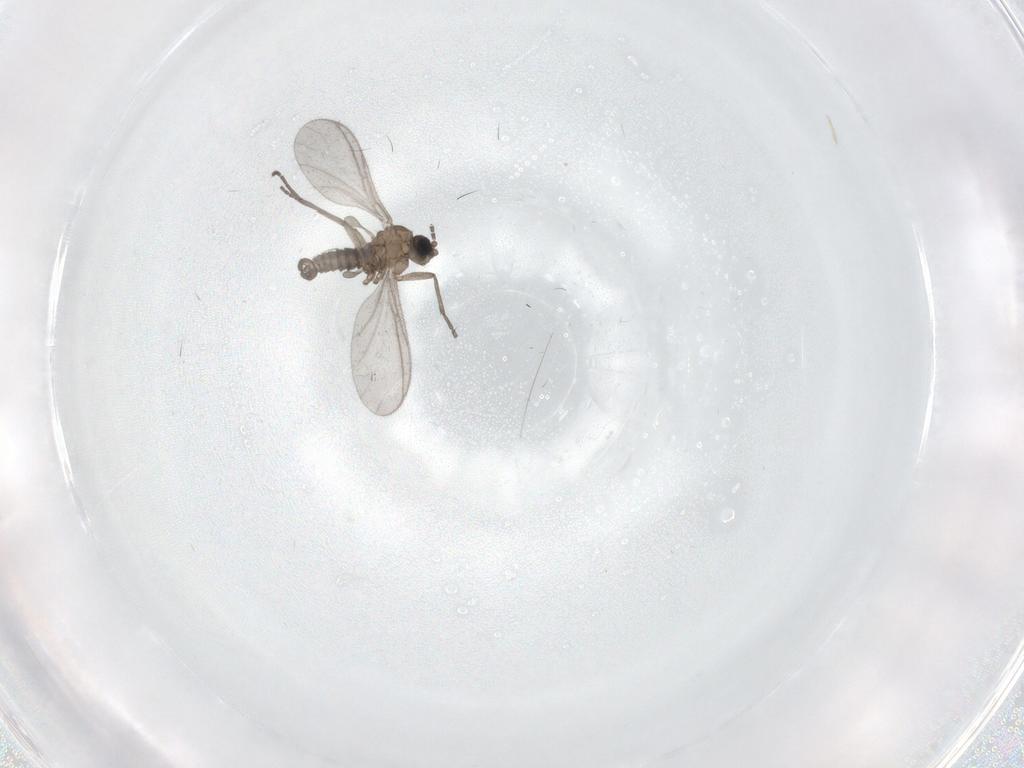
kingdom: Animalia
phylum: Arthropoda
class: Insecta
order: Diptera
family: Sciaridae
